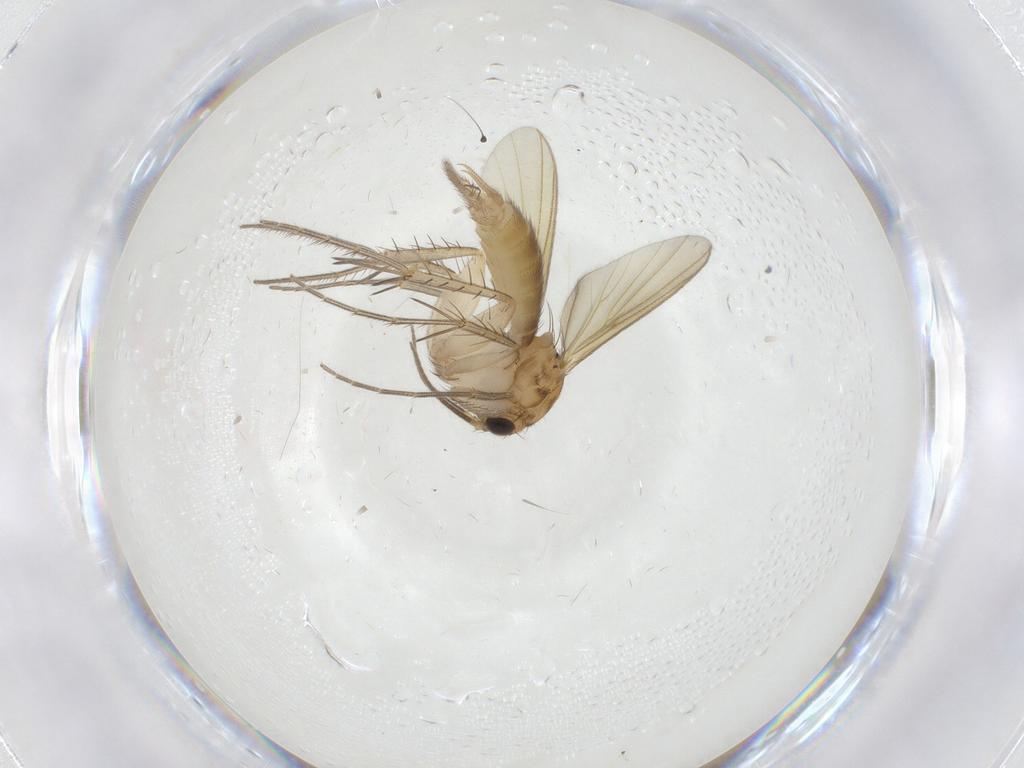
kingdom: Animalia
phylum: Arthropoda
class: Insecta
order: Diptera
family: Mycetophilidae
